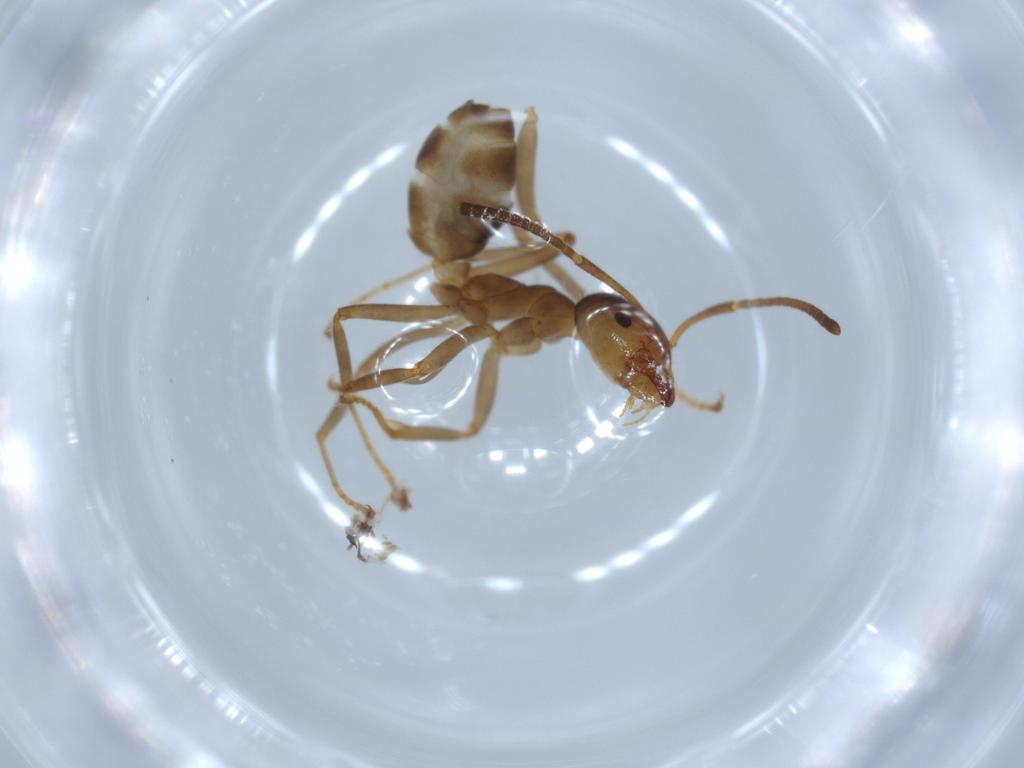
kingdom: Animalia
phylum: Arthropoda
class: Insecta
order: Hymenoptera
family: Formicidae
